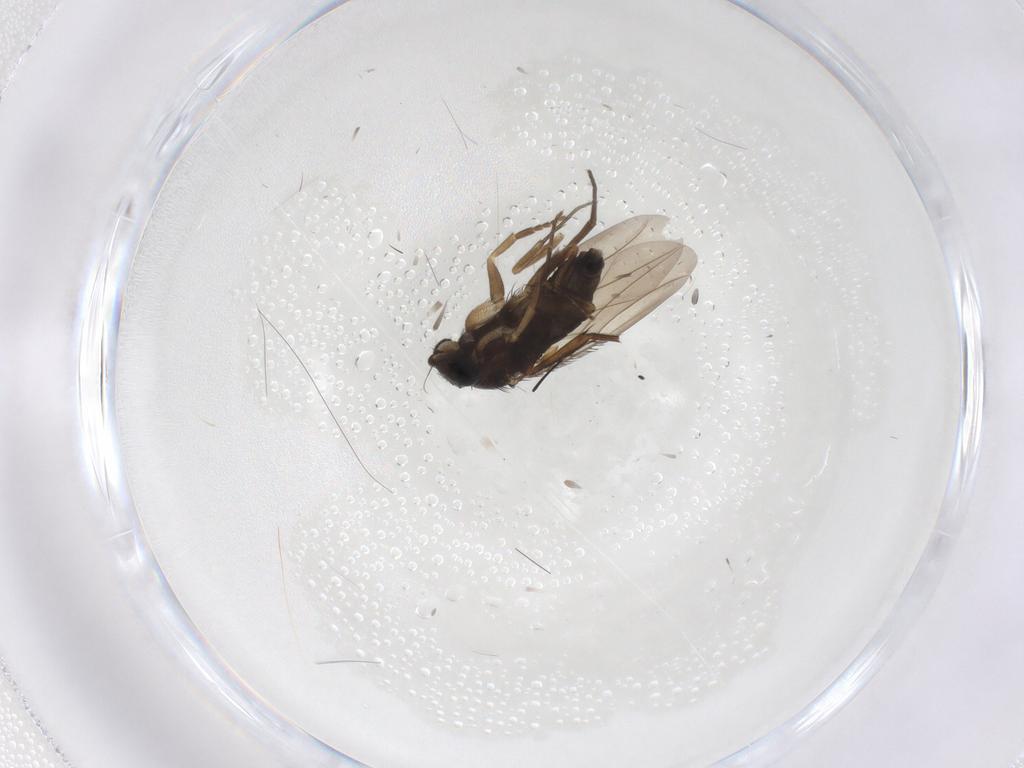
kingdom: Animalia
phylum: Arthropoda
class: Insecta
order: Diptera
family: Phoridae
